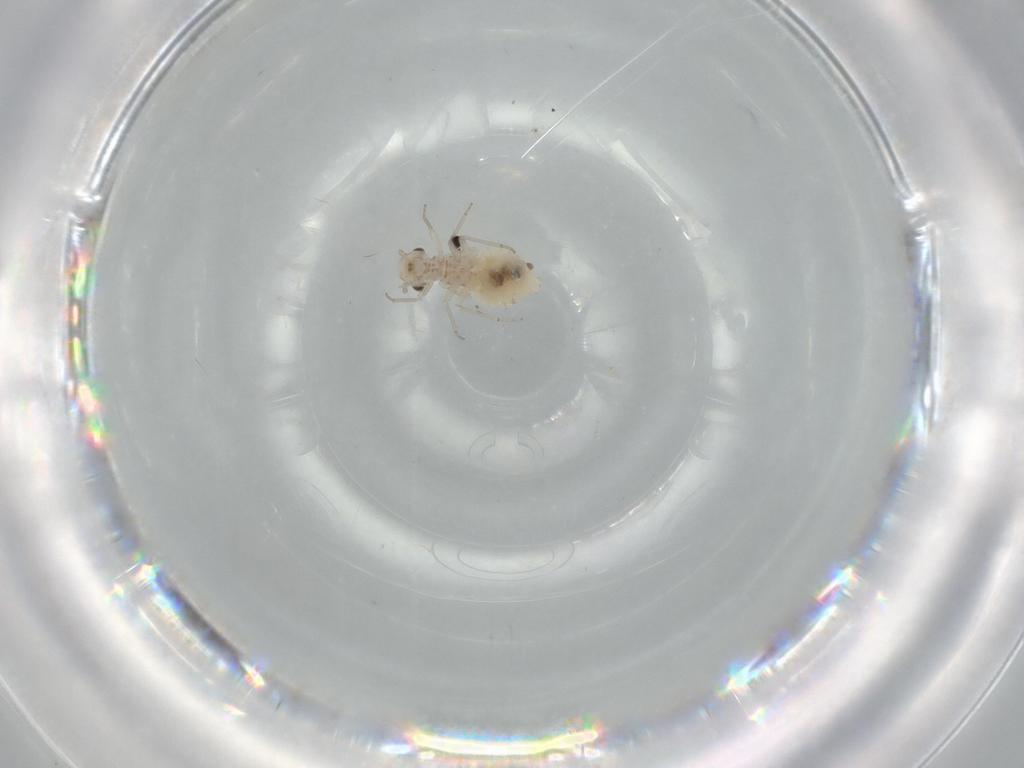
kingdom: Animalia
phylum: Arthropoda
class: Insecta
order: Psocodea
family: Lachesillidae
